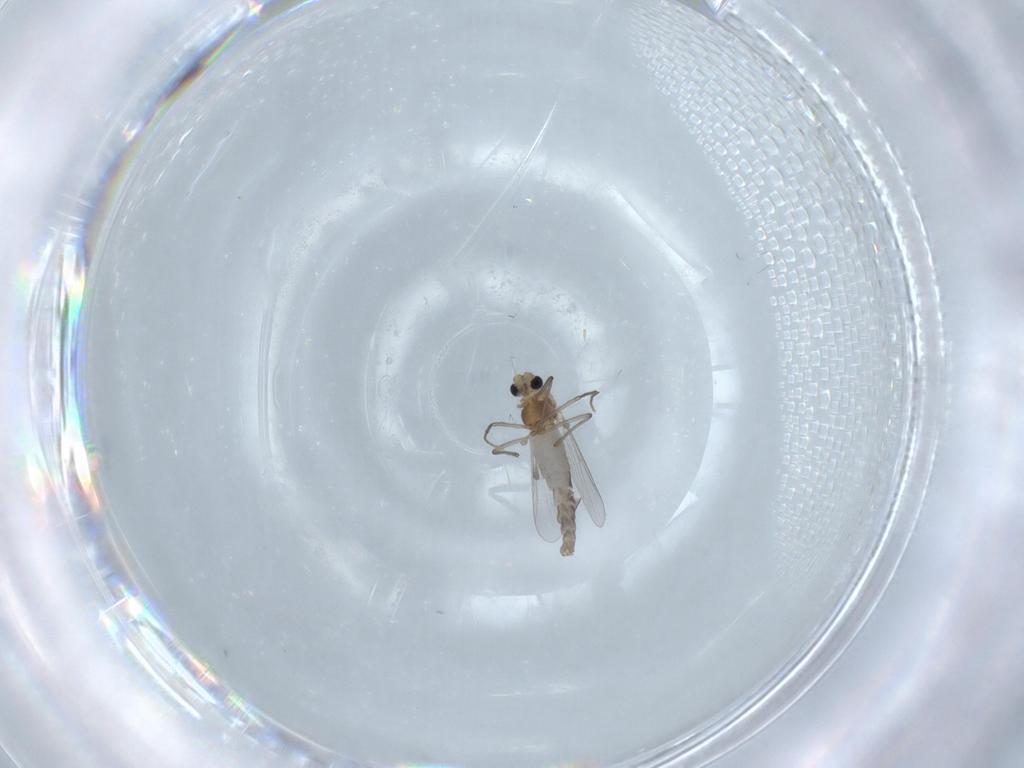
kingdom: Animalia
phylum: Arthropoda
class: Insecta
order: Diptera
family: Chironomidae
